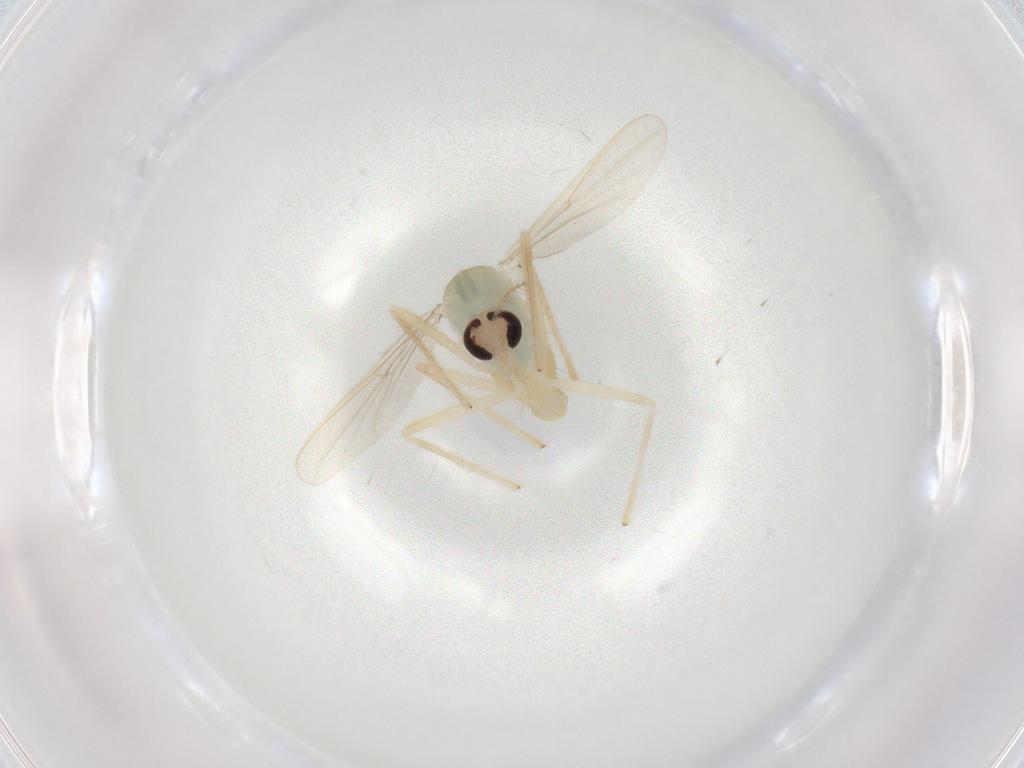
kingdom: Animalia
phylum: Arthropoda
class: Insecta
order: Diptera
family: Chironomidae
